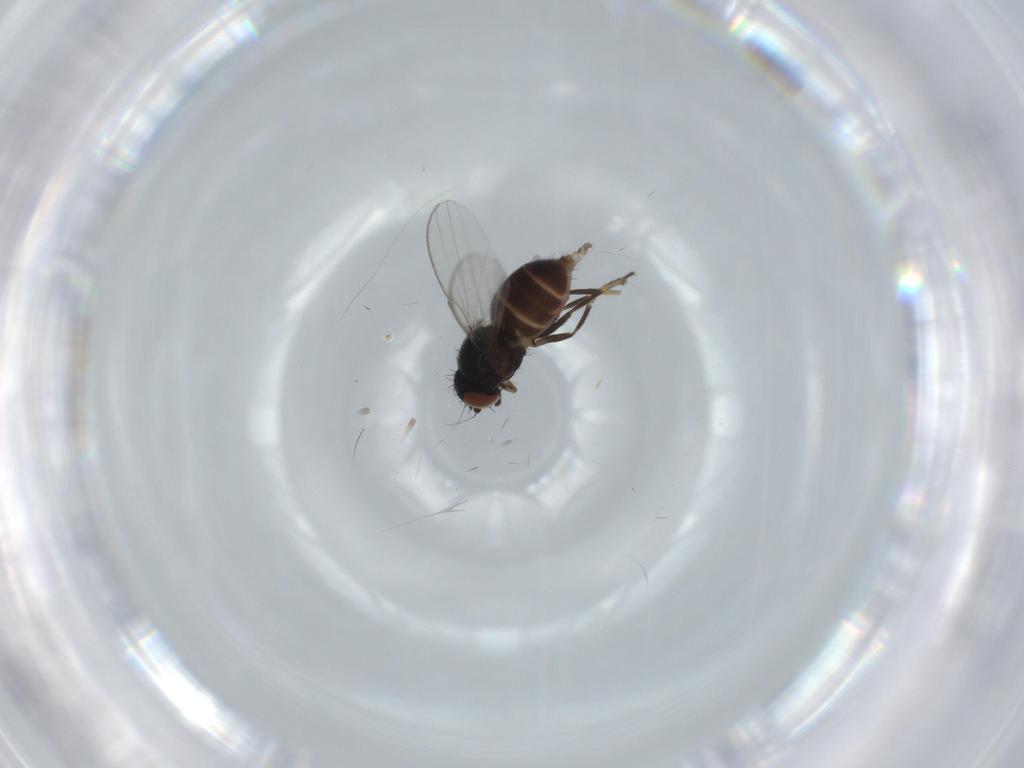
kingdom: Animalia
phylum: Arthropoda
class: Insecta
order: Diptera
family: Milichiidae
